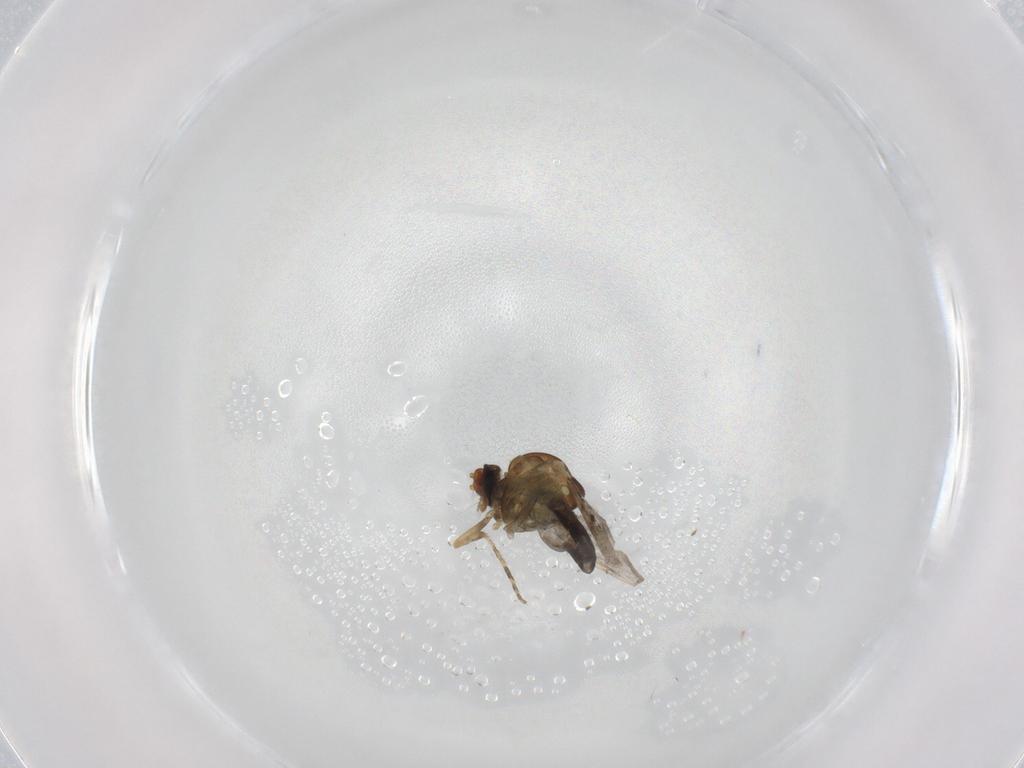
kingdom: Animalia
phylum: Arthropoda
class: Insecta
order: Diptera
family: Ceratopogonidae
